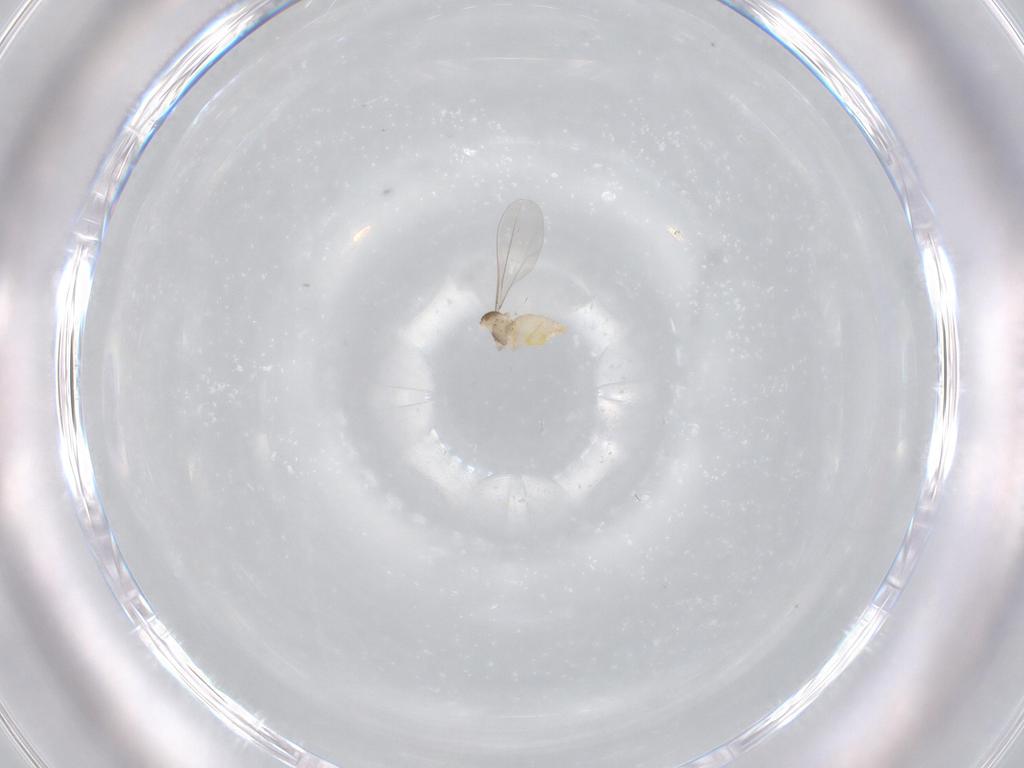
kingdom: Animalia
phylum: Arthropoda
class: Insecta
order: Diptera
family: Cecidomyiidae
